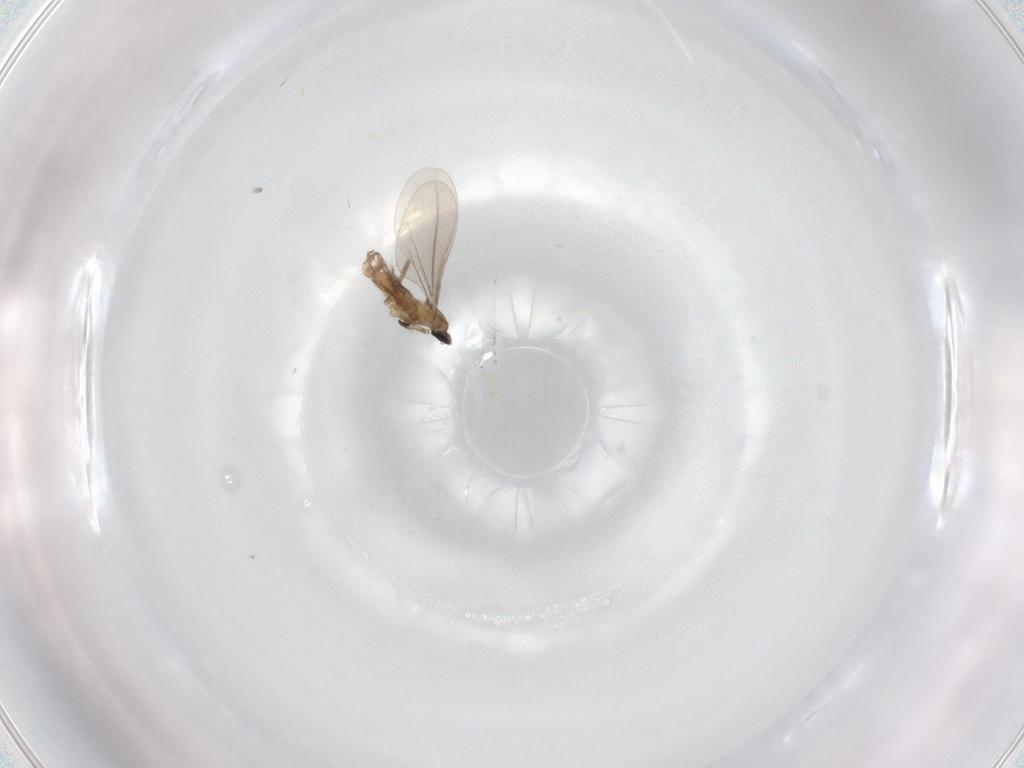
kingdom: Animalia
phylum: Arthropoda
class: Insecta
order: Diptera
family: Cecidomyiidae
